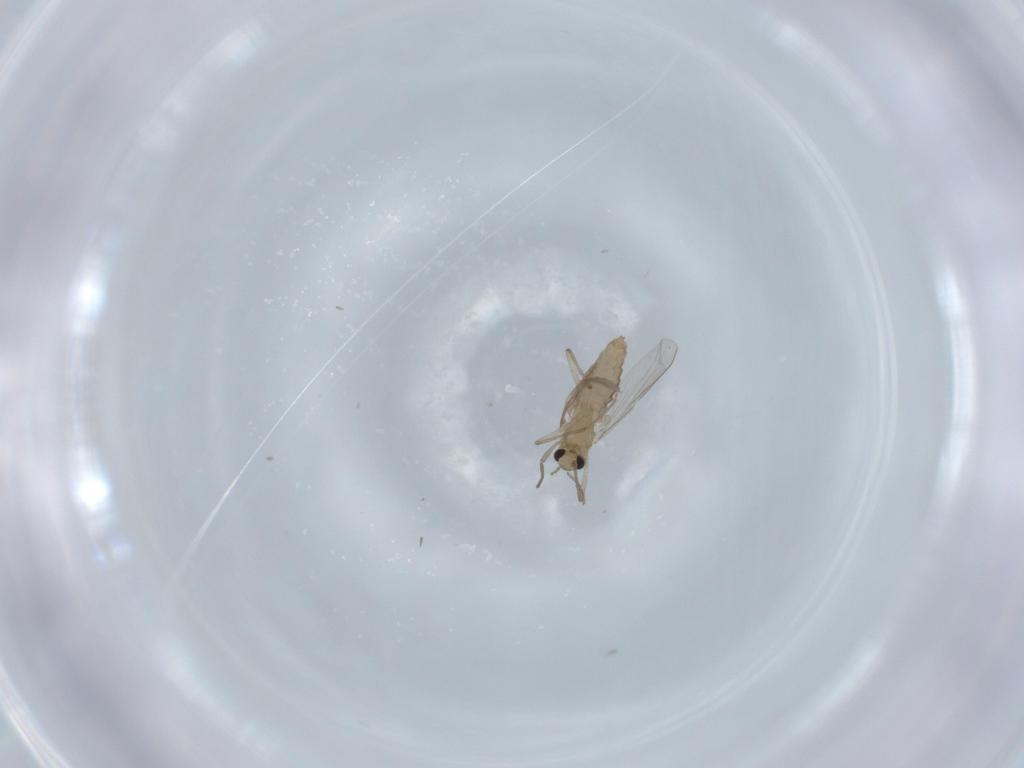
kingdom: Animalia
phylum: Arthropoda
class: Insecta
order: Diptera
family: Chironomidae
